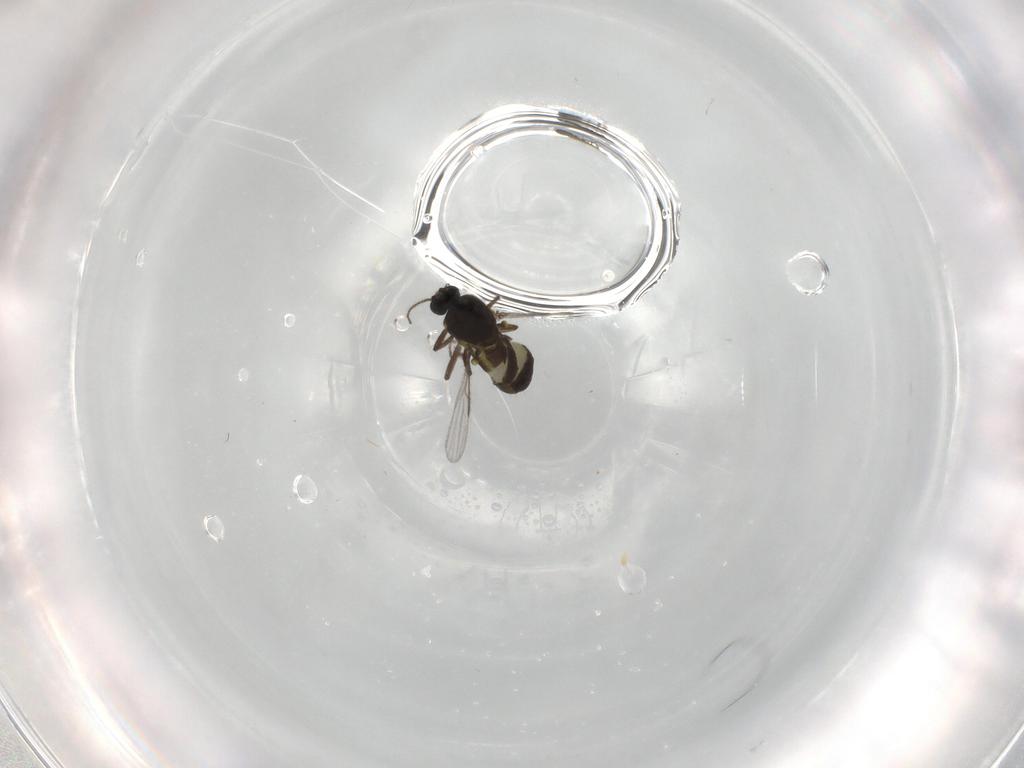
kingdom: Animalia
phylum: Arthropoda
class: Insecta
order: Diptera
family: Ceratopogonidae
